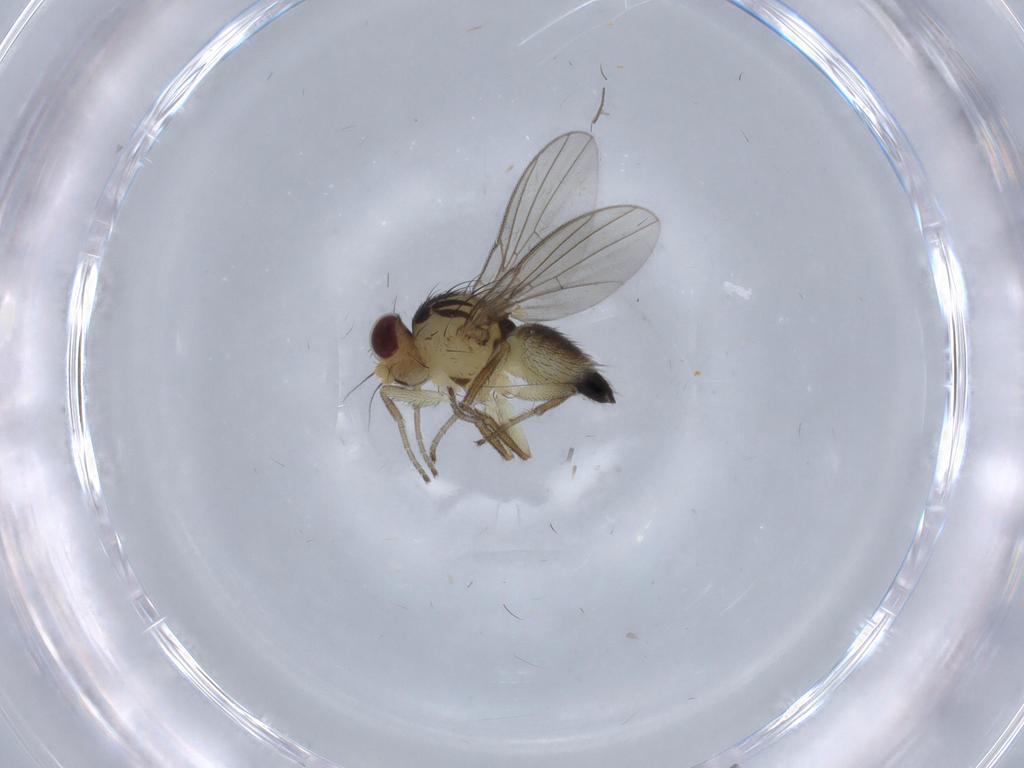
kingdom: Animalia
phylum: Arthropoda
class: Insecta
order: Diptera
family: Agromyzidae
